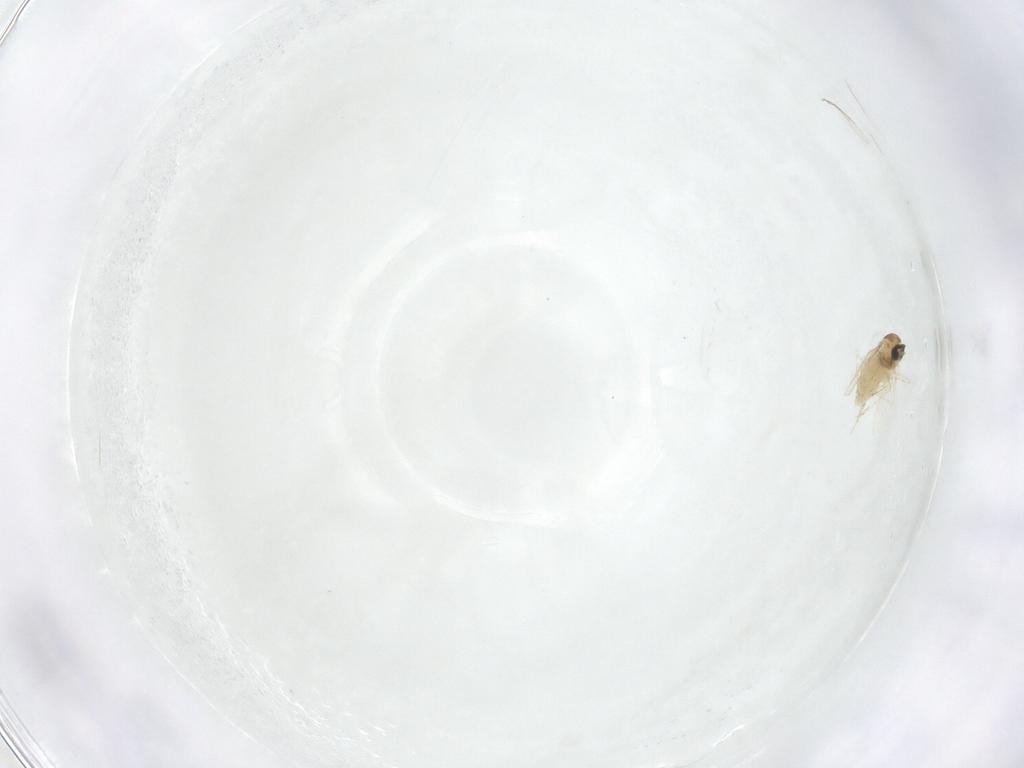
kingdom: Animalia
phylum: Arthropoda
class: Insecta
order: Diptera
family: Cecidomyiidae
